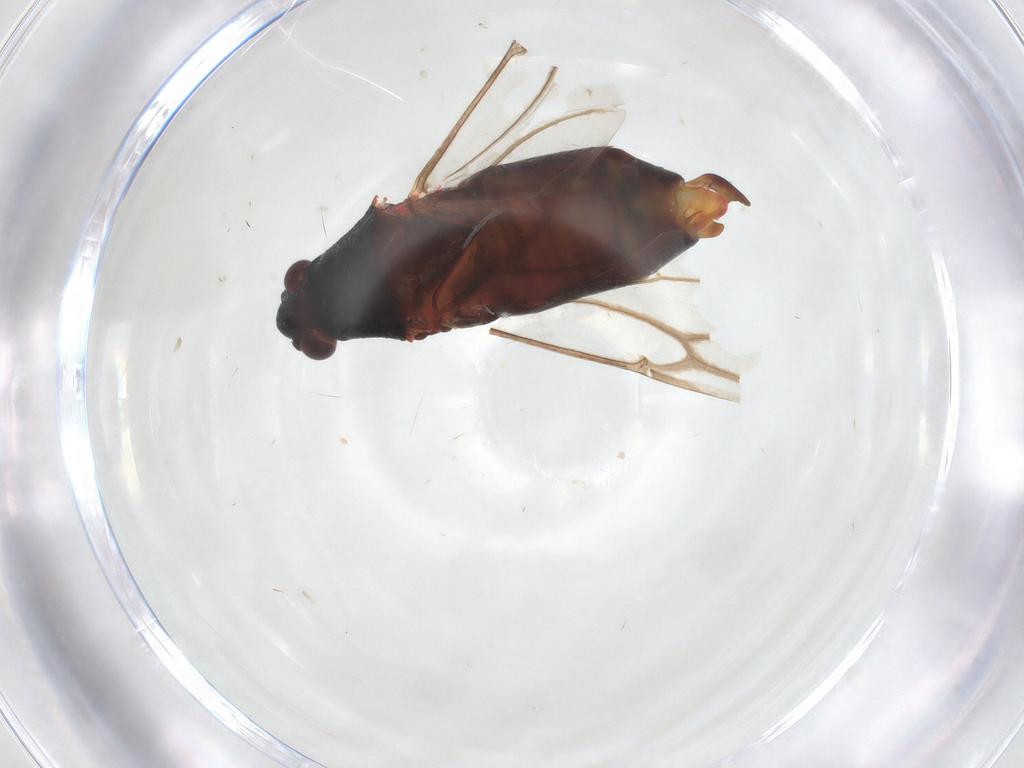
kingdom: Animalia
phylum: Arthropoda
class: Collembola
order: Entomobryomorpha
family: Entomobryidae
